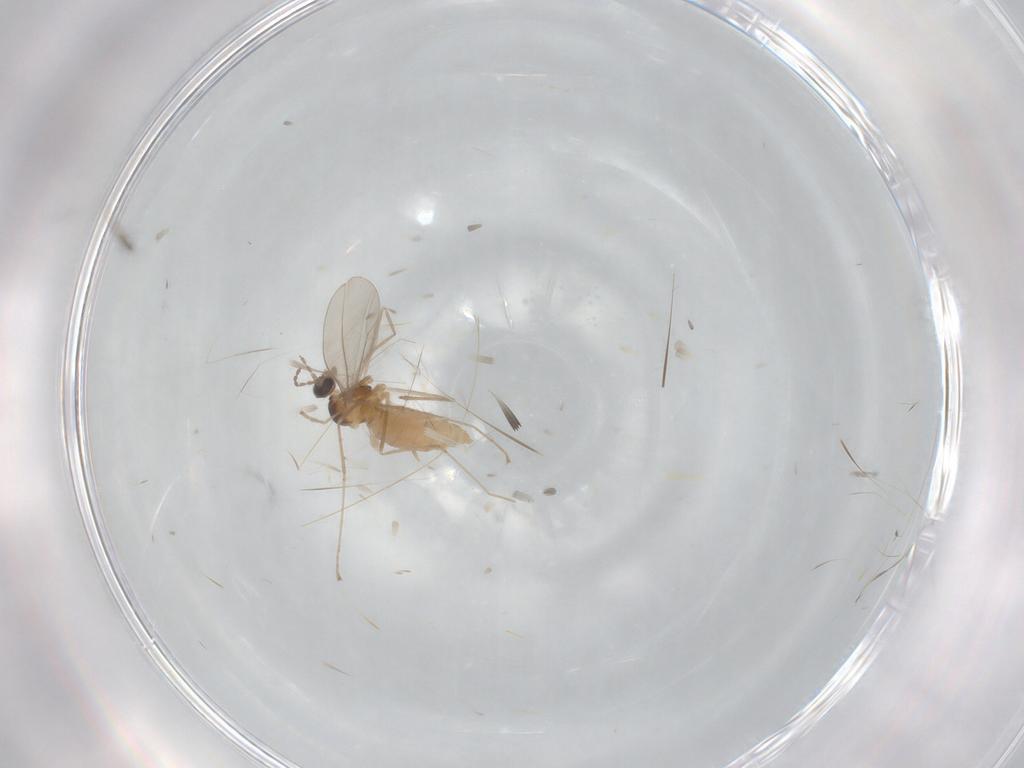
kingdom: Animalia
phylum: Arthropoda
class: Insecta
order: Diptera
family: Cecidomyiidae
